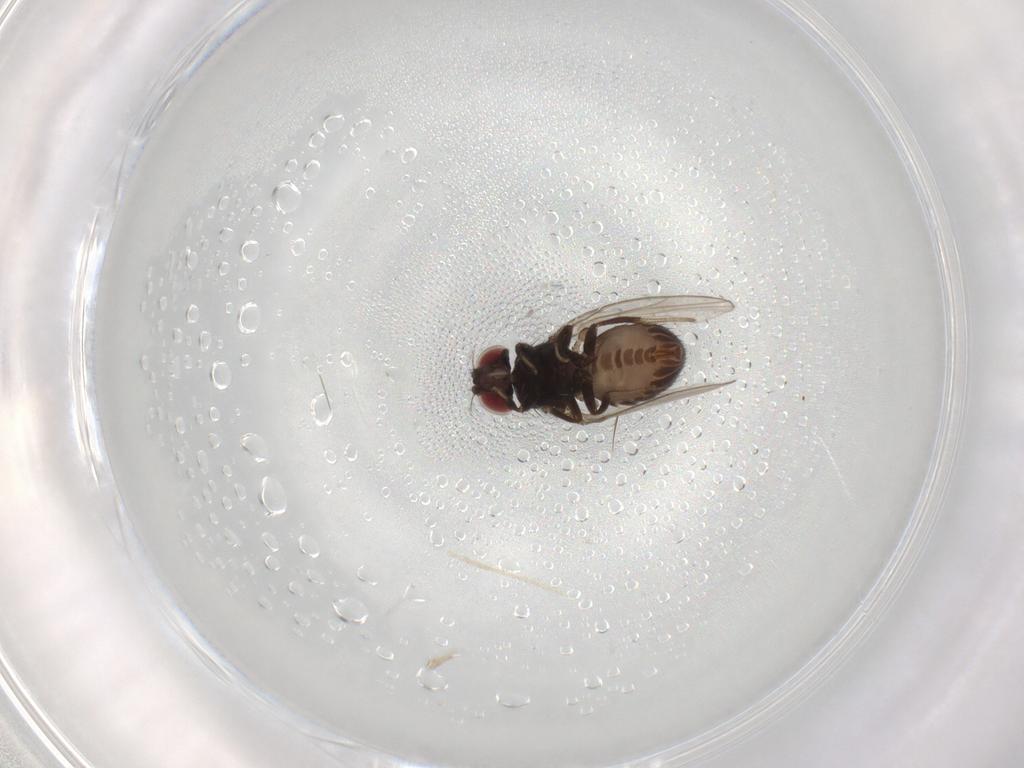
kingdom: Animalia
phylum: Arthropoda
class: Insecta
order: Diptera
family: Drosophilidae
